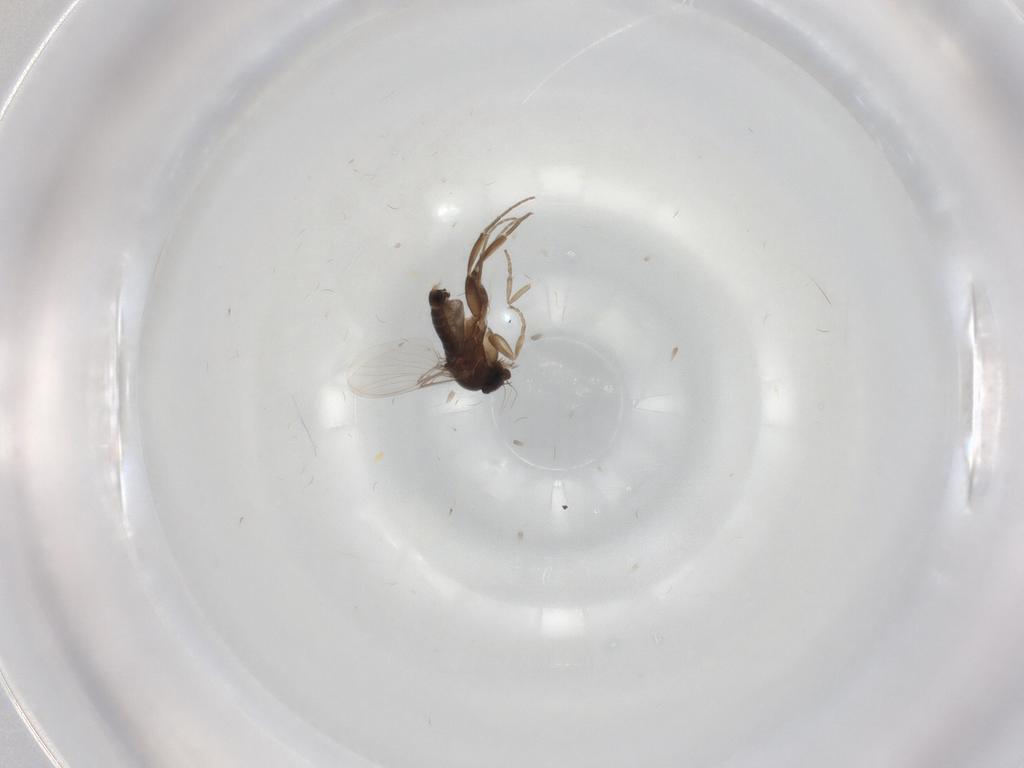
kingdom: Animalia
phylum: Arthropoda
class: Insecta
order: Diptera
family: Phoridae
